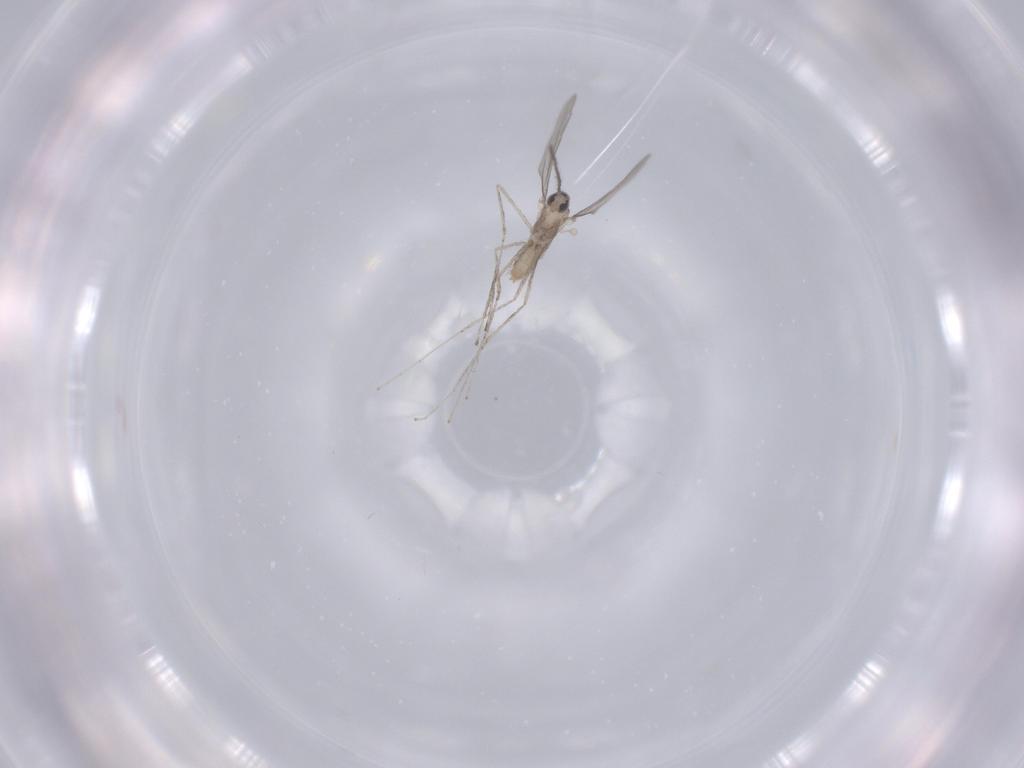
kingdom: Animalia
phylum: Arthropoda
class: Insecta
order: Diptera
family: Cecidomyiidae
